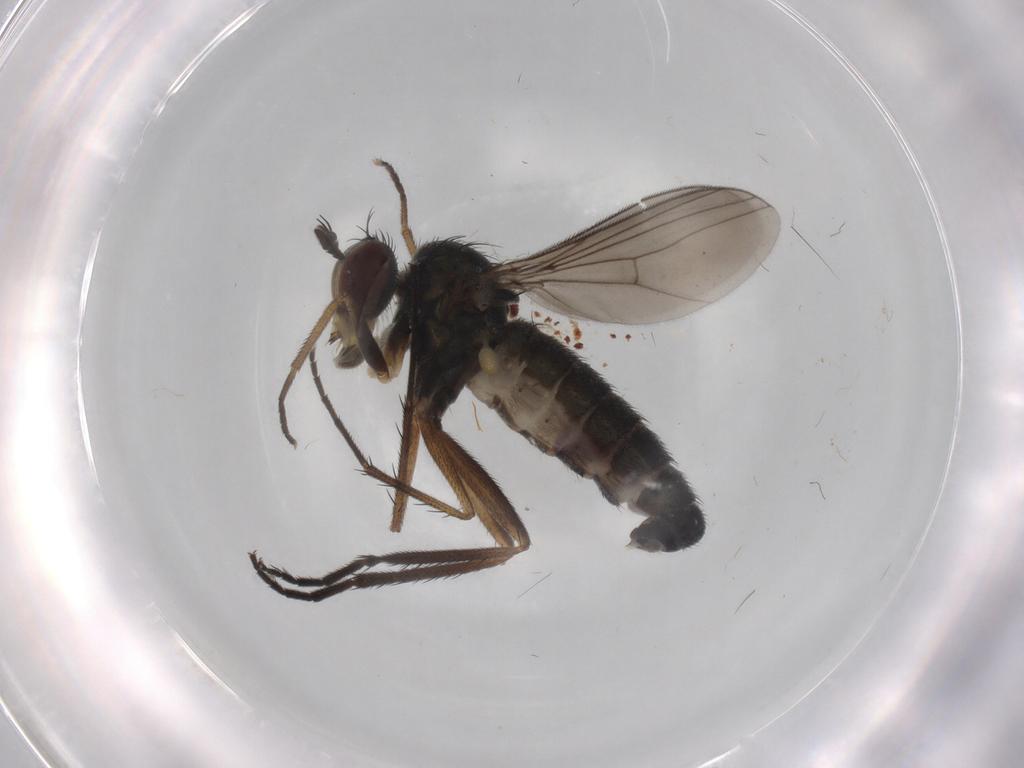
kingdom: Animalia
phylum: Arthropoda
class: Insecta
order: Diptera
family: Dolichopodidae
